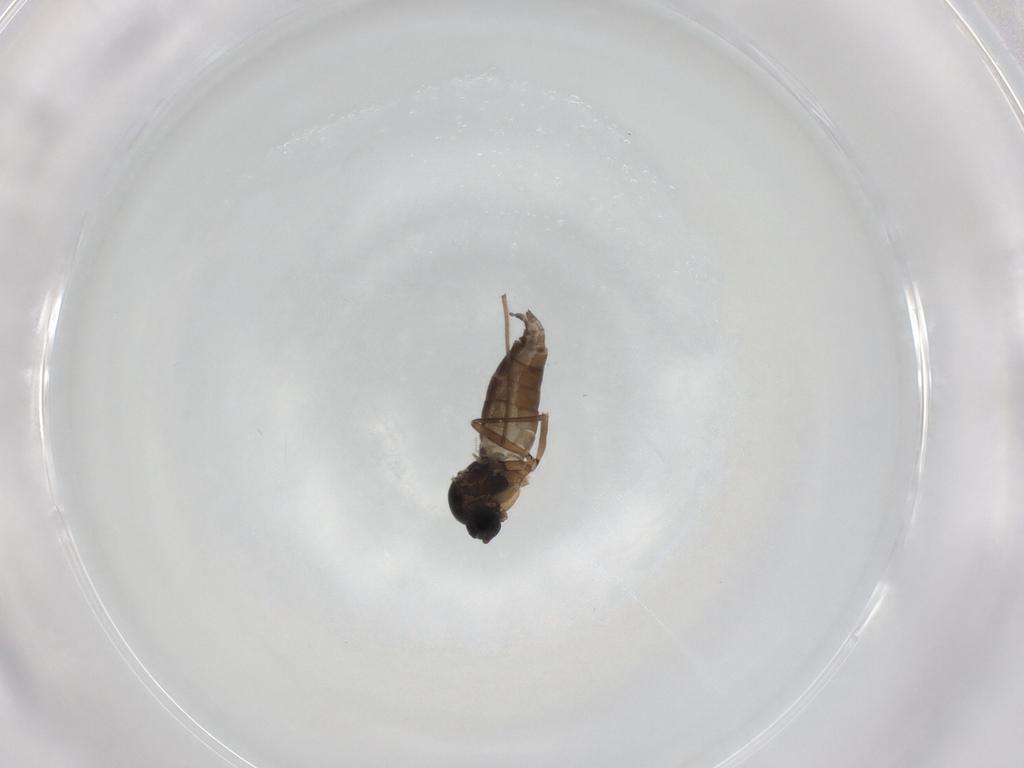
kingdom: Animalia
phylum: Arthropoda
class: Insecta
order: Diptera
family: Sciaridae
